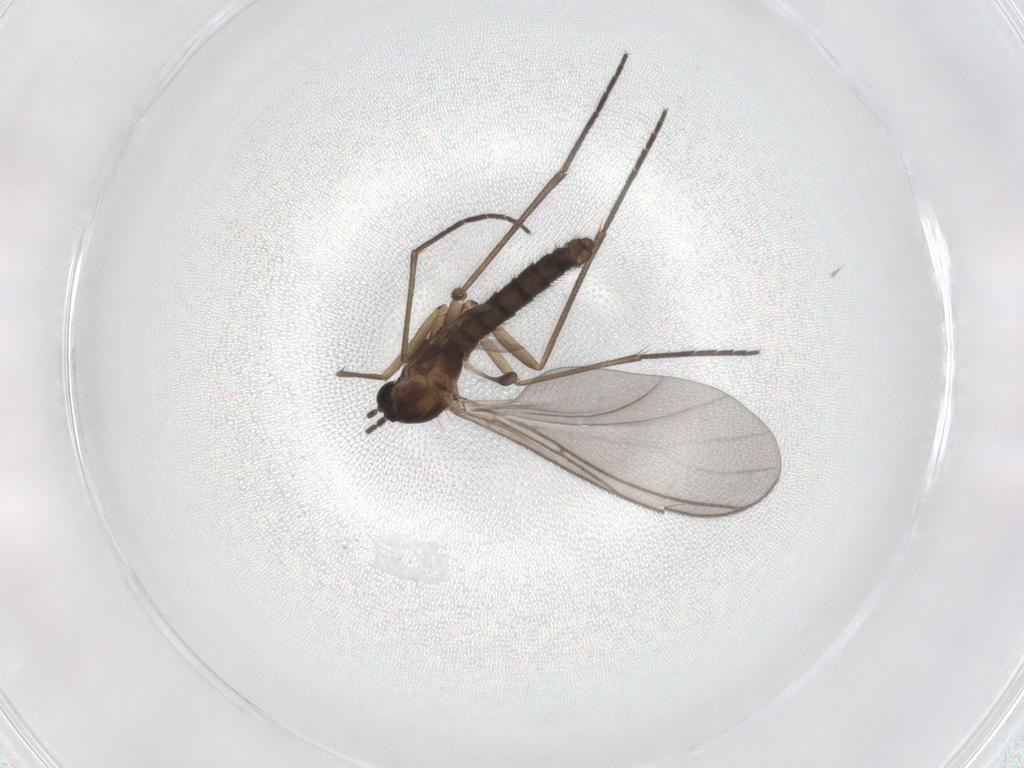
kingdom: Animalia
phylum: Arthropoda
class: Insecta
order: Diptera
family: Sciaridae
